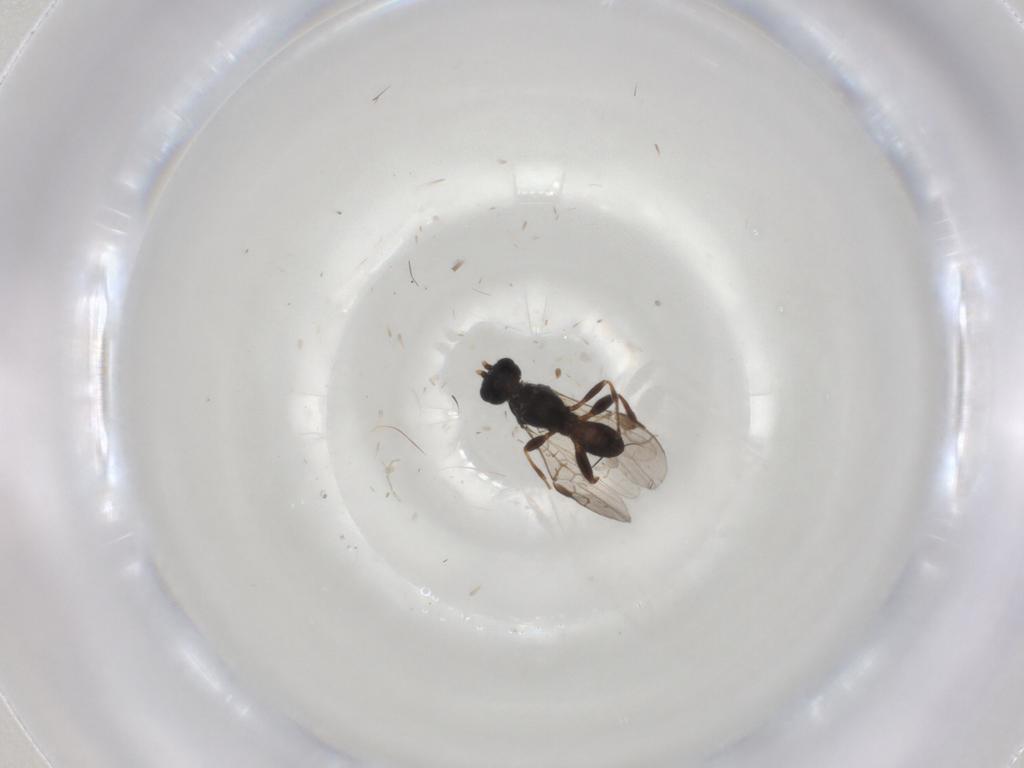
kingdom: Animalia
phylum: Arthropoda
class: Insecta
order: Hymenoptera
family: Braconidae
